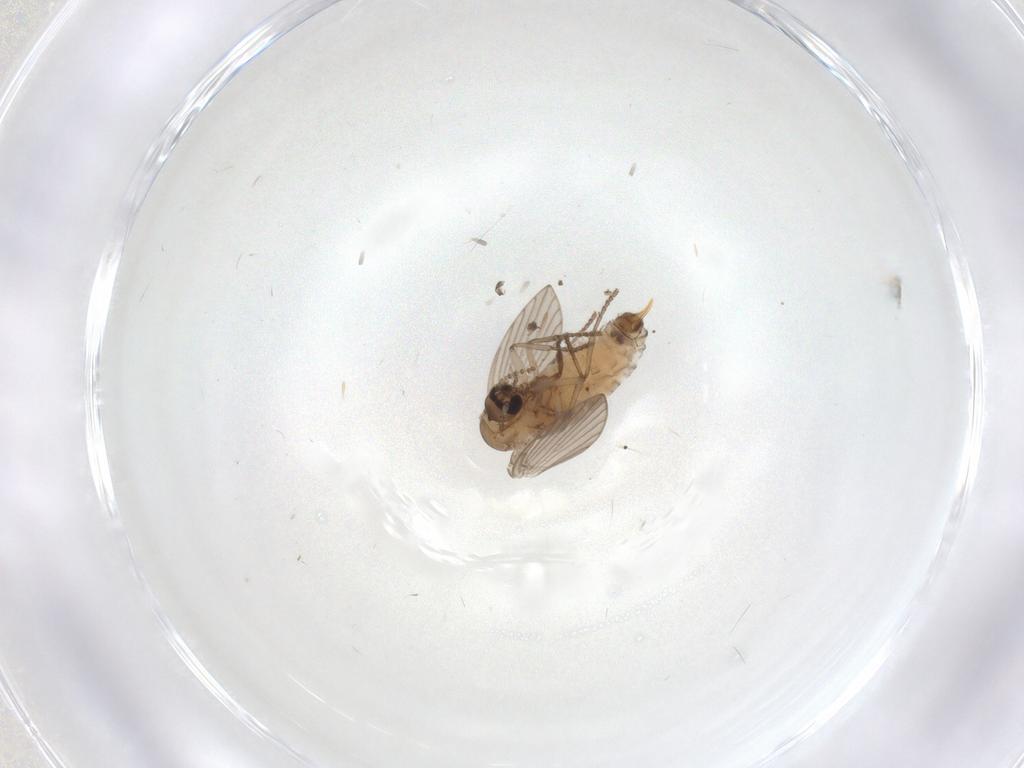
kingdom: Animalia
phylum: Arthropoda
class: Insecta
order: Diptera
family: Psychodidae
